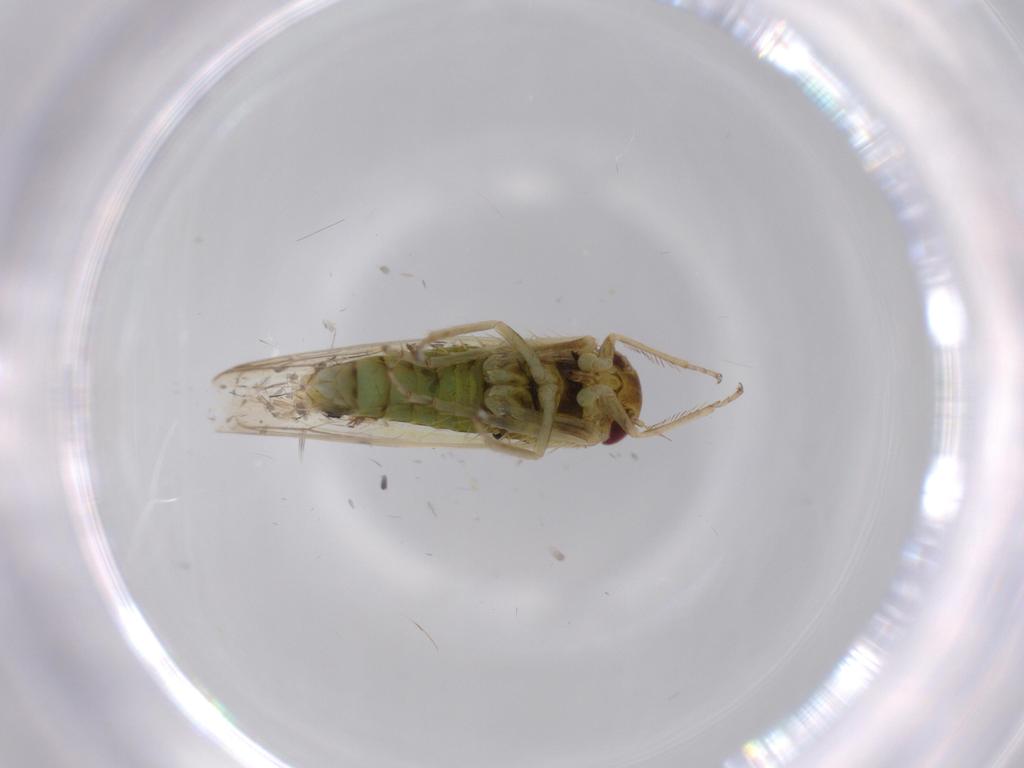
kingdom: Animalia
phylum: Arthropoda
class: Insecta
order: Hemiptera
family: Cicadellidae
